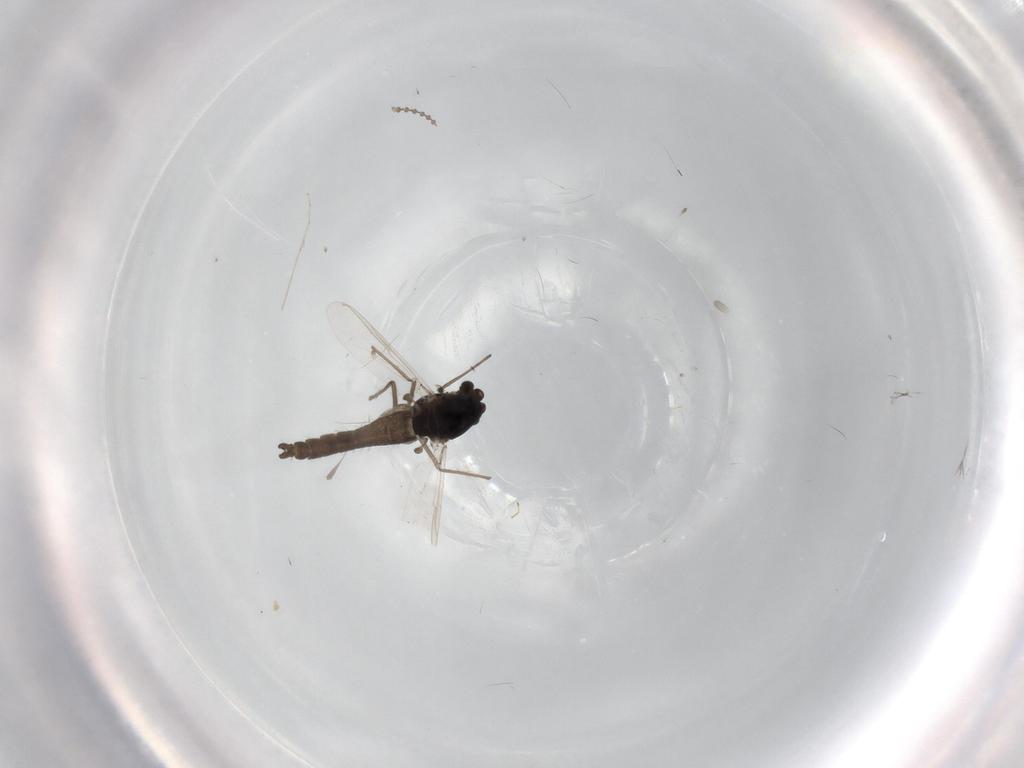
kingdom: Animalia
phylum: Arthropoda
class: Insecta
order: Diptera
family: Chironomidae
